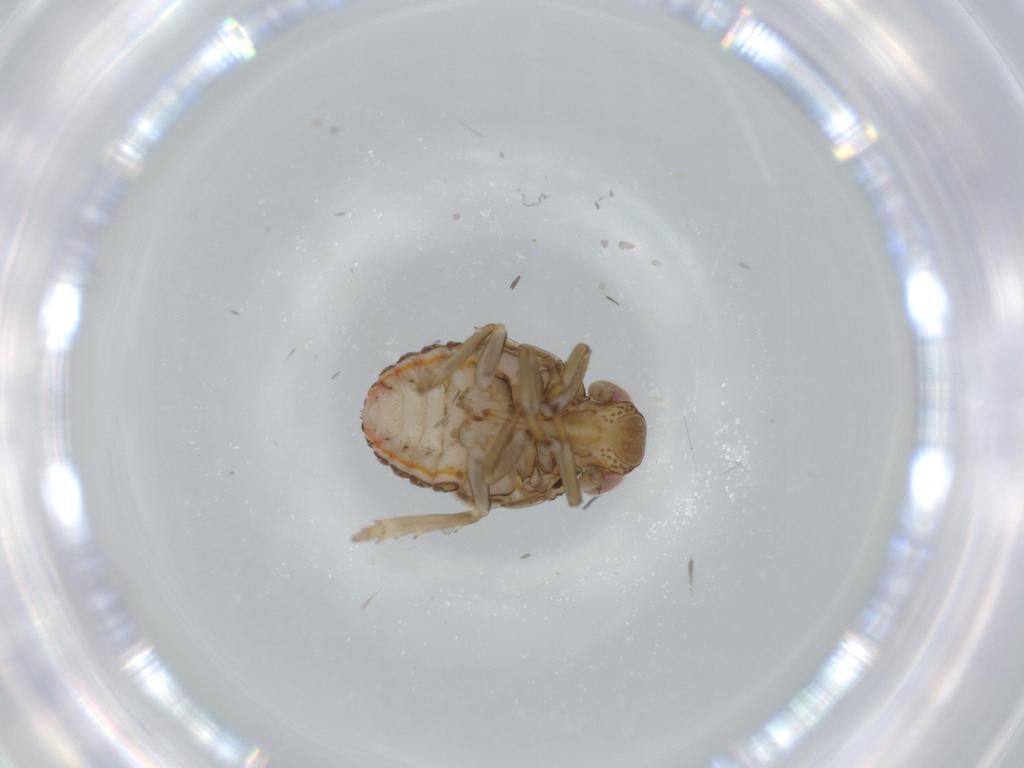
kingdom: Animalia
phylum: Arthropoda
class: Insecta
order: Hemiptera
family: Issidae
